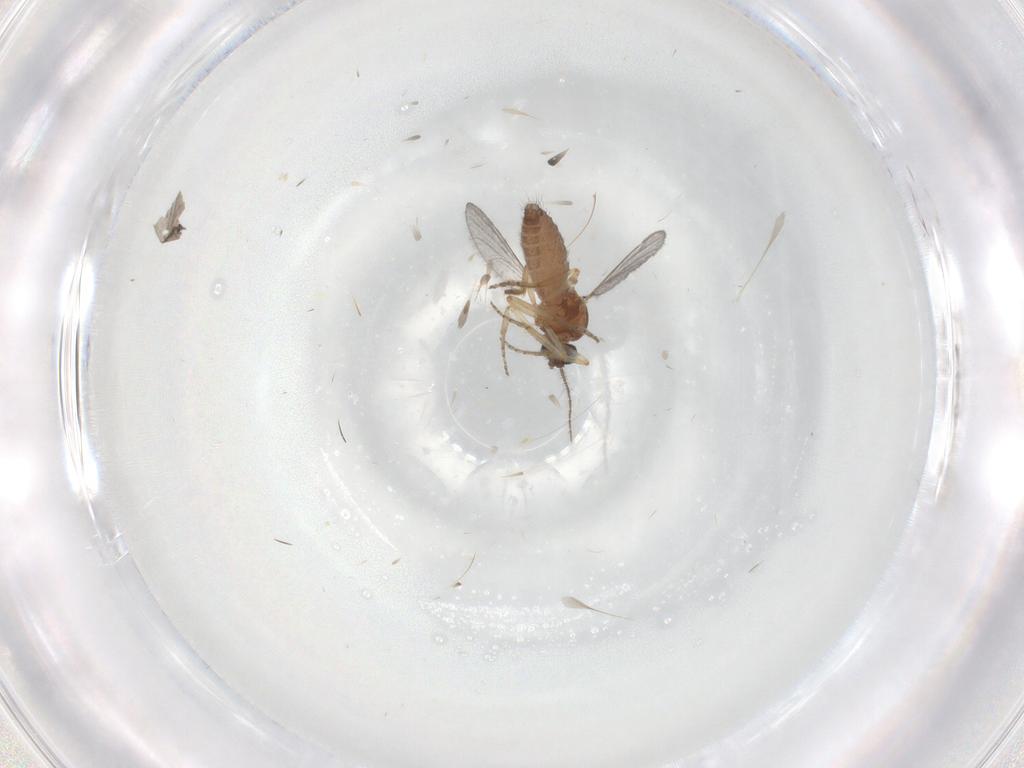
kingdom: Animalia
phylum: Arthropoda
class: Insecta
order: Diptera
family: Ceratopogonidae
